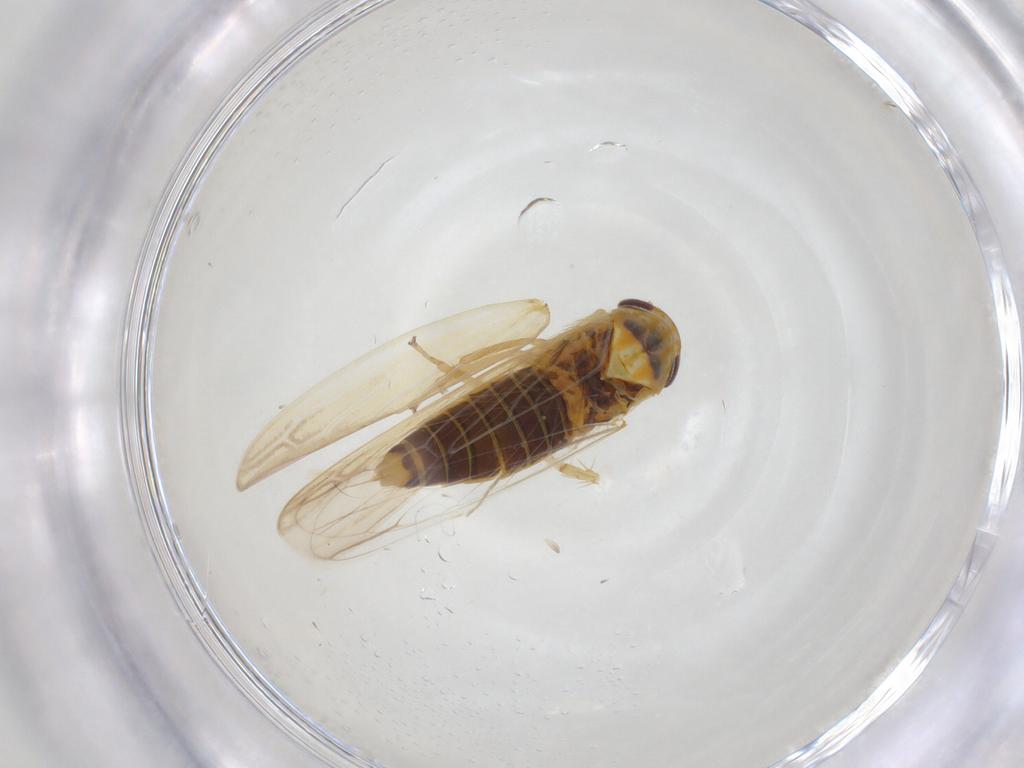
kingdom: Animalia
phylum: Arthropoda
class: Insecta
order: Hemiptera
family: Cicadellidae
